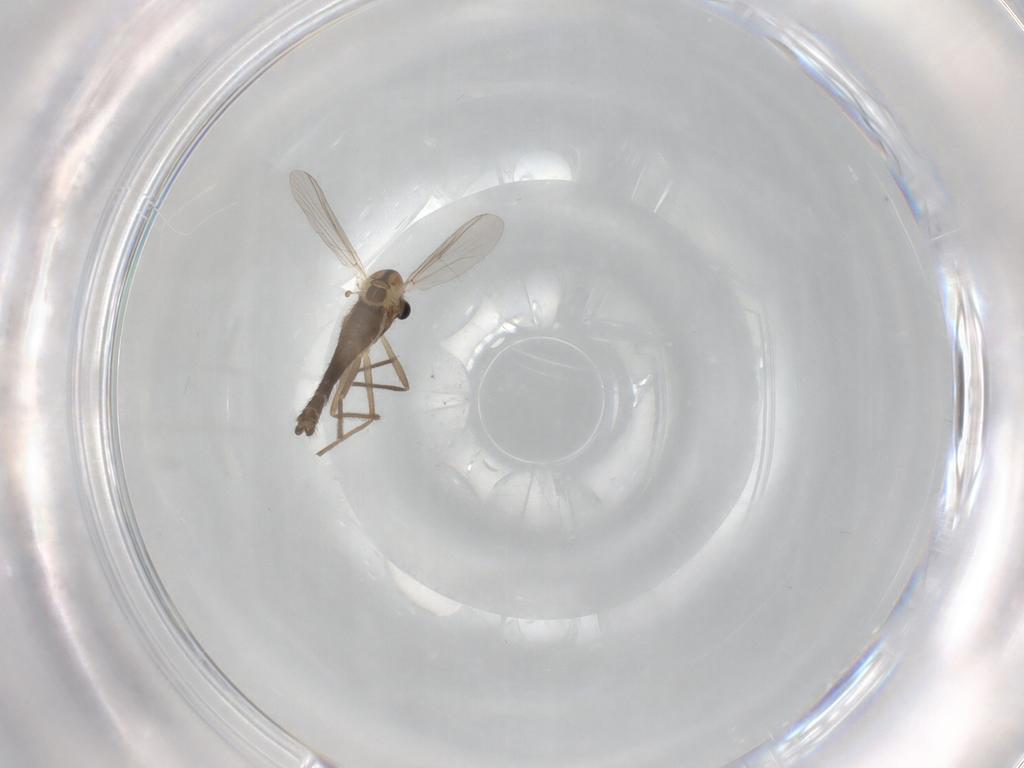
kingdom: Animalia
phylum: Arthropoda
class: Insecta
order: Diptera
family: Chironomidae
